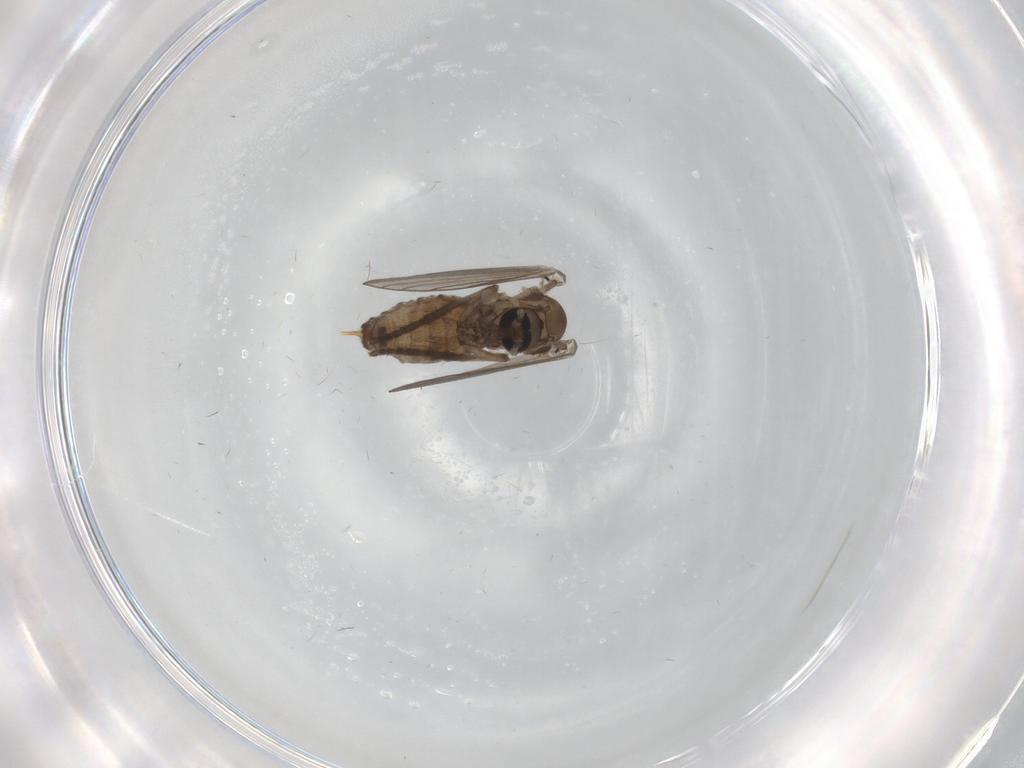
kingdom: Animalia
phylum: Arthropoda
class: Insecta
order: Diptera
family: Psychodidae
